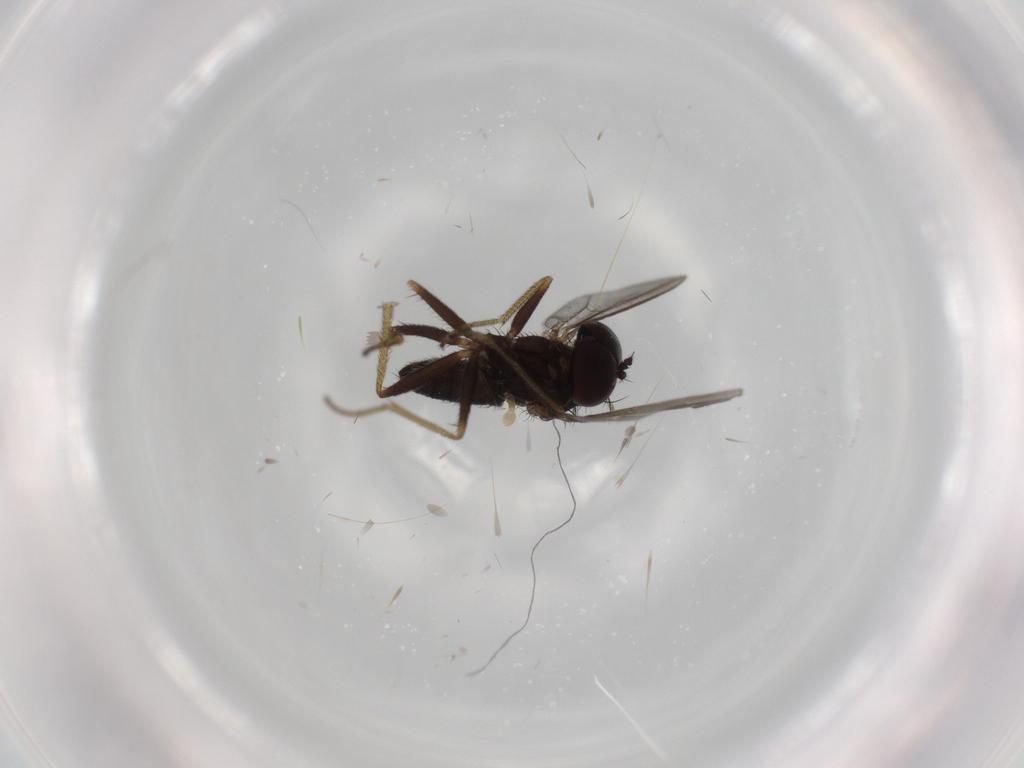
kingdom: Animalia
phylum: Arthropoda
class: Insecta
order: Diptera
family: Dolichopodidae
